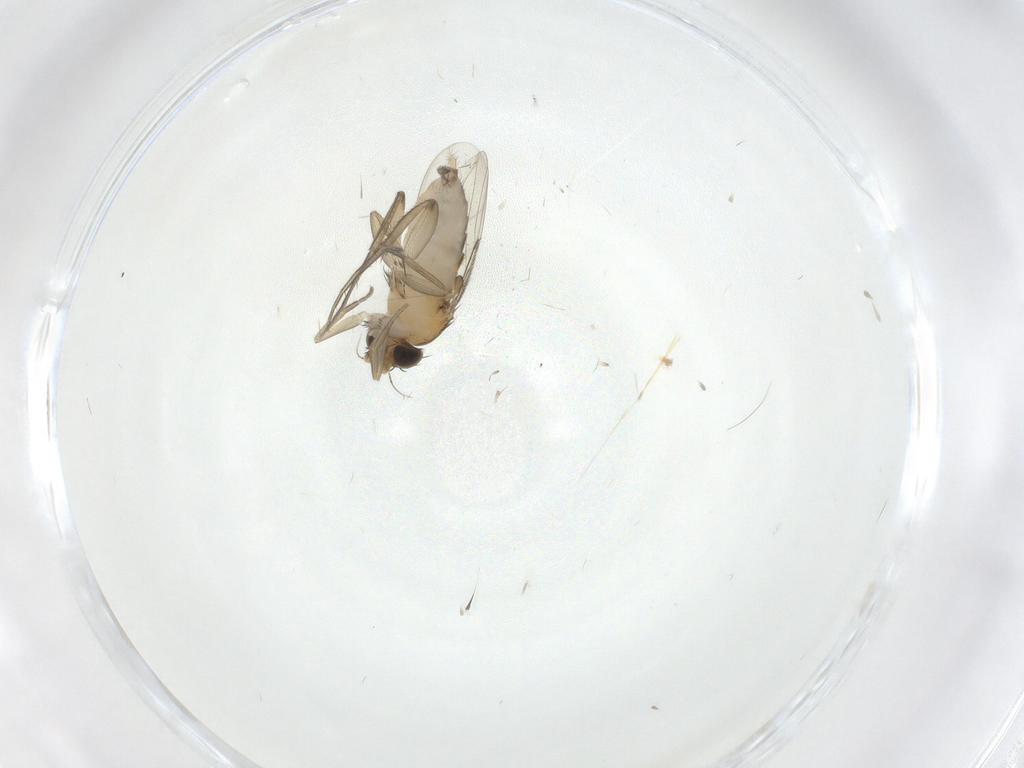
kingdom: Animalia
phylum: Arthropoda
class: Insecta
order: Diptera
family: Phoridae
